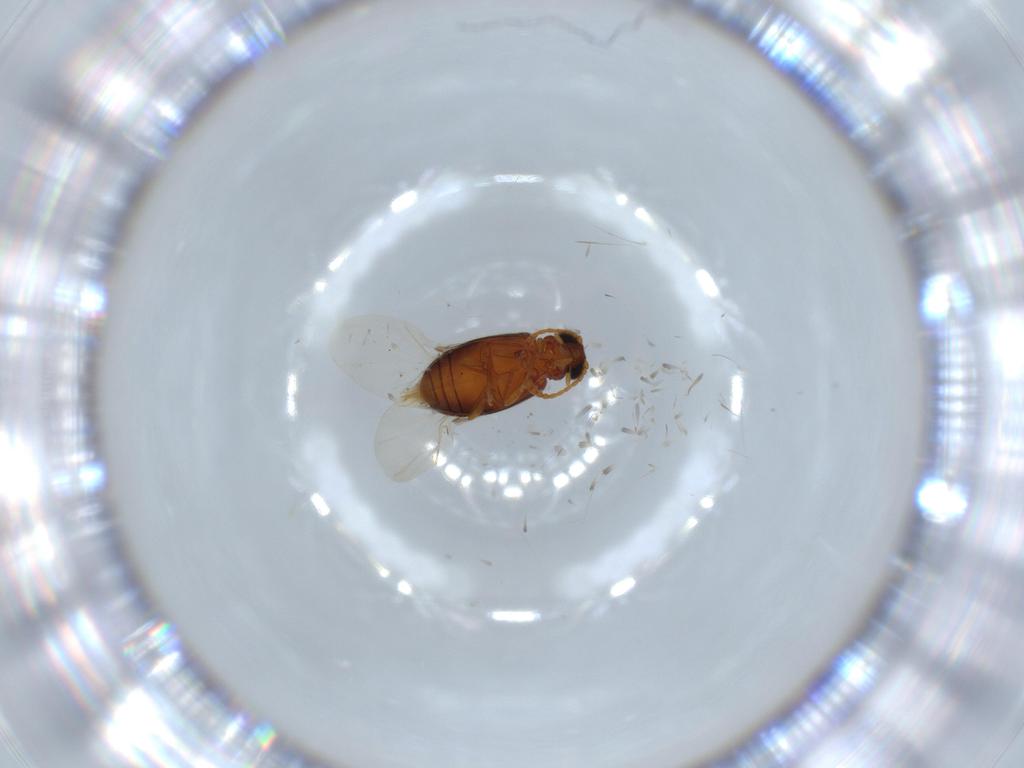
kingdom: Animalia
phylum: Arthropoda
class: Insecta
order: Coleoptera
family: Aderidae
